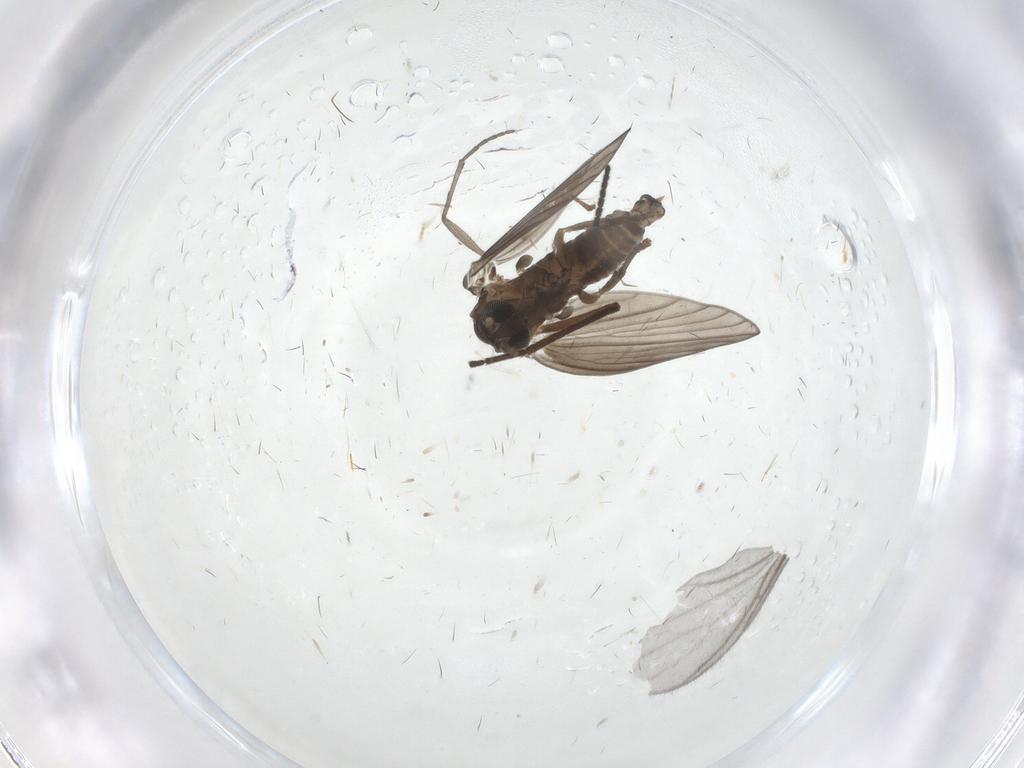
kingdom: Animalia
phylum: Arthropoda
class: Insecta
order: Diptera
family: Psychodidae
